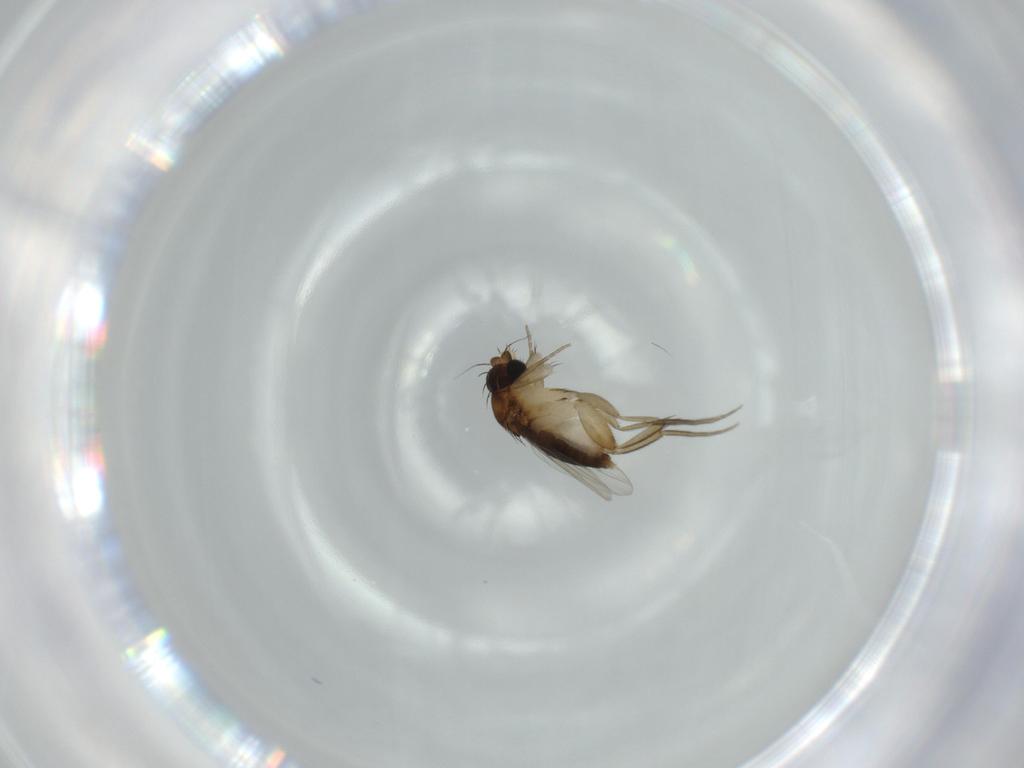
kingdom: Animalia
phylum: Arthropoda
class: Insecta
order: Diptera
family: Phoridae
